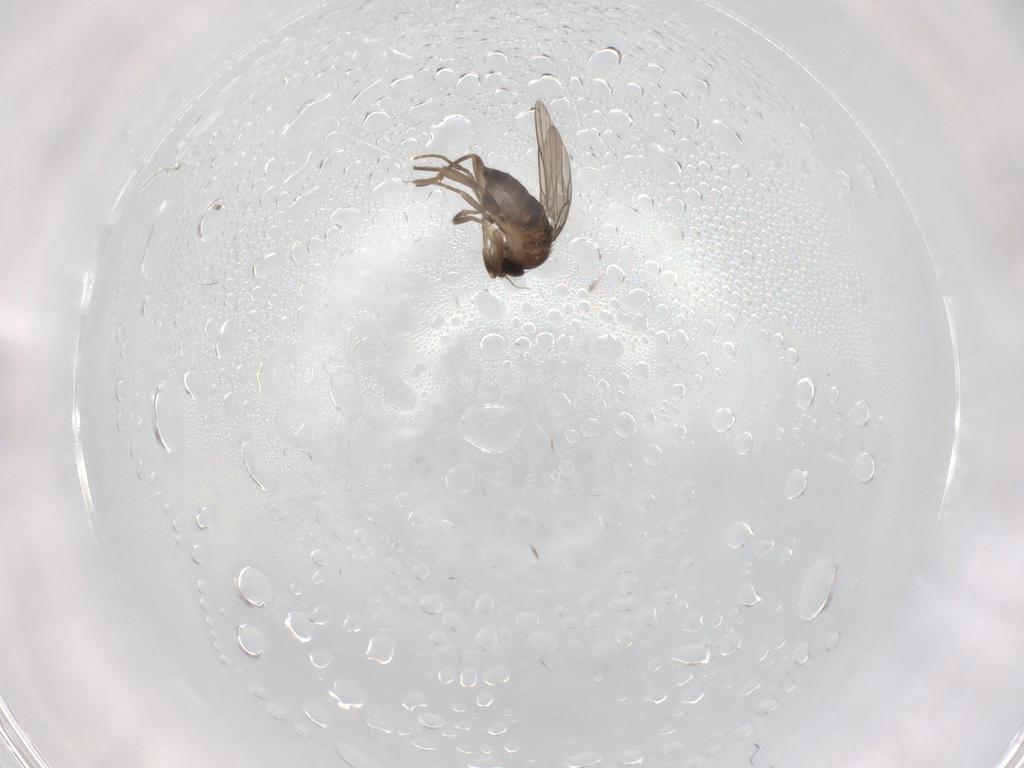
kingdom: Animalia
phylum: Arthropoda
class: Insecta
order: Diptera
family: Phoridae
